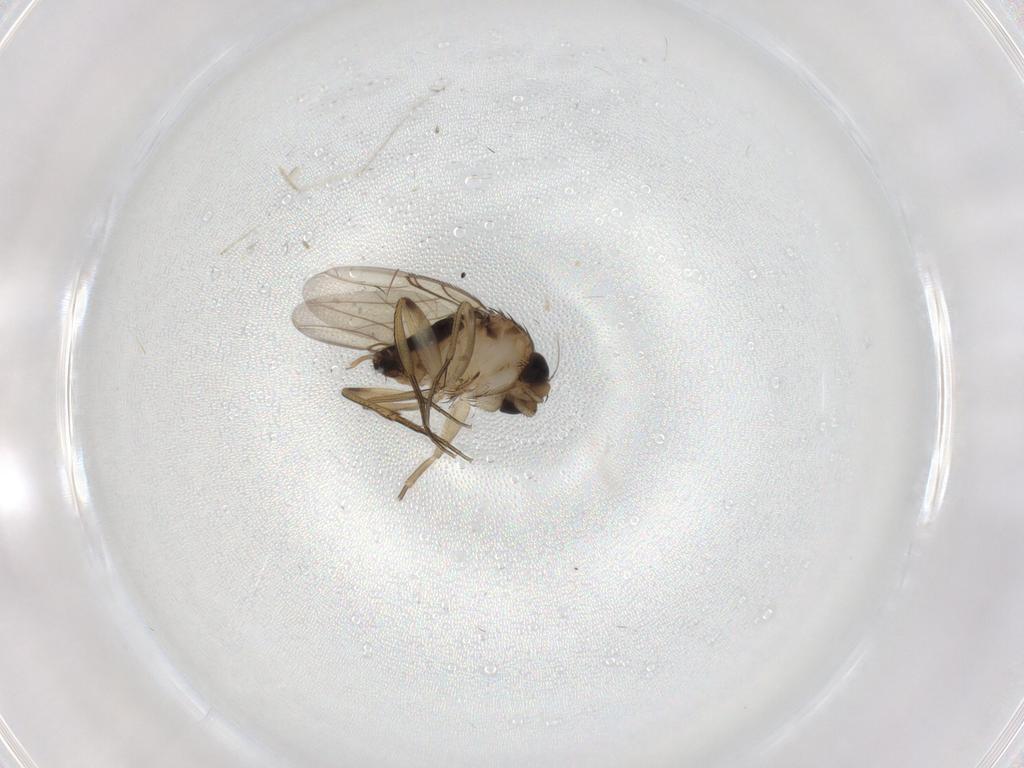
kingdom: Animalia
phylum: Arthropoda
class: Insecta
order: Diptera
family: Phoridae
